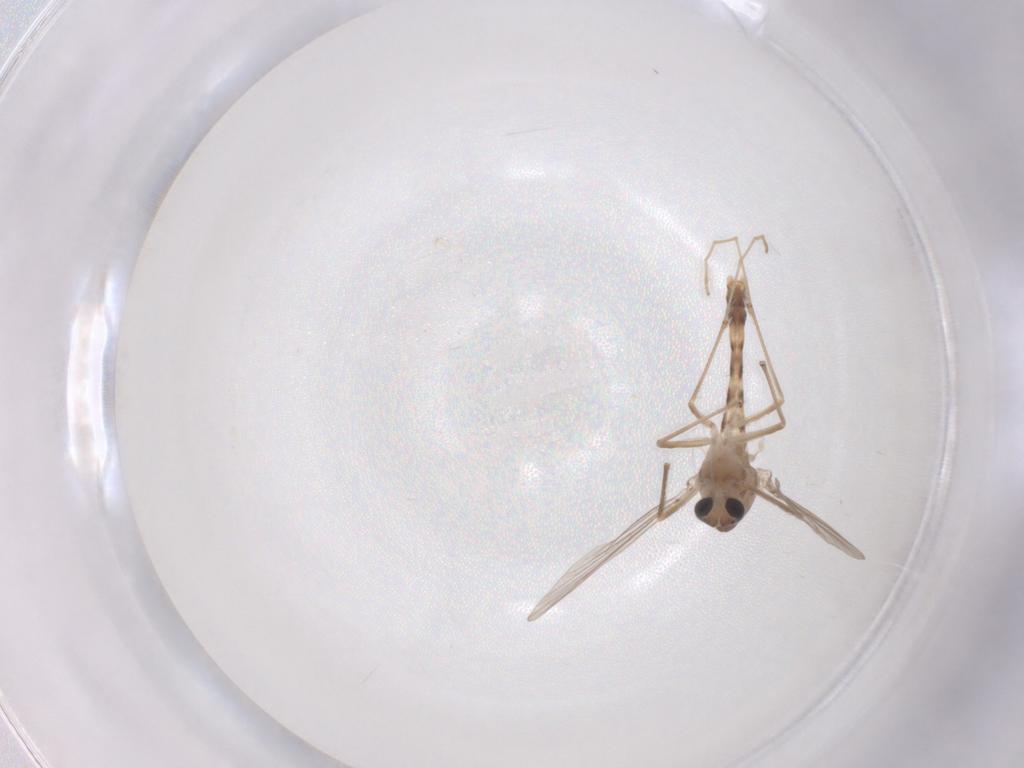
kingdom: Animalia
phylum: Arthropoda
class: Insecta
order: Diptera
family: Chironomidae
